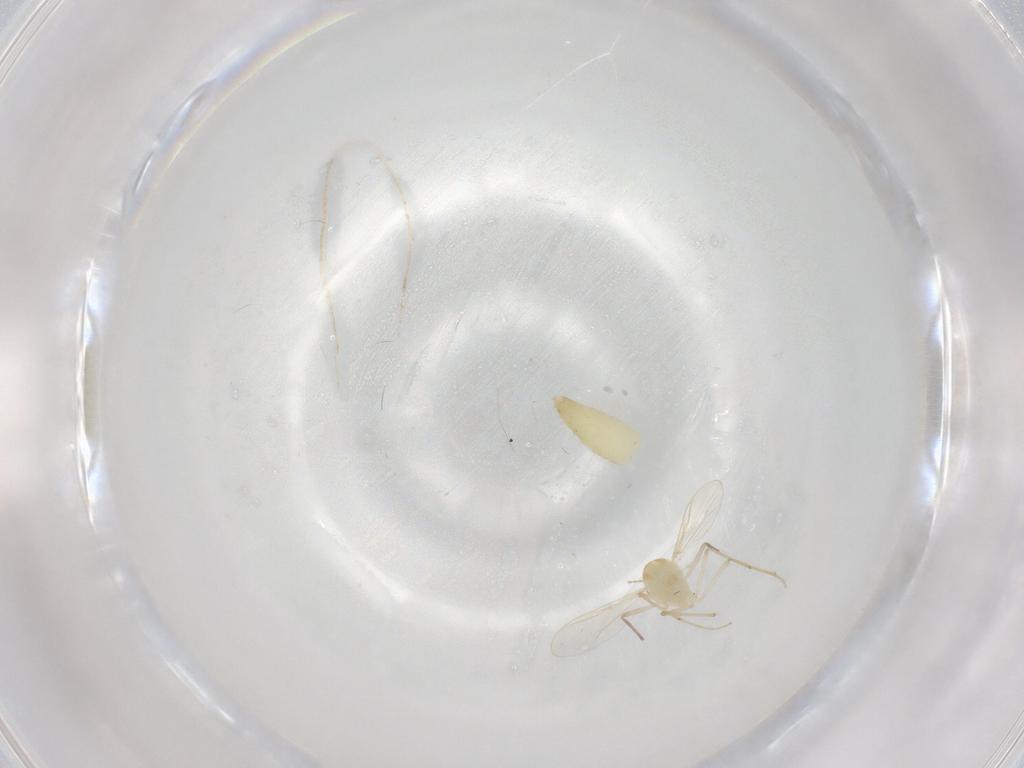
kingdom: Animalia
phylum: Arthropoda
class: Insecta
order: Diptera
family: Chironomidae
